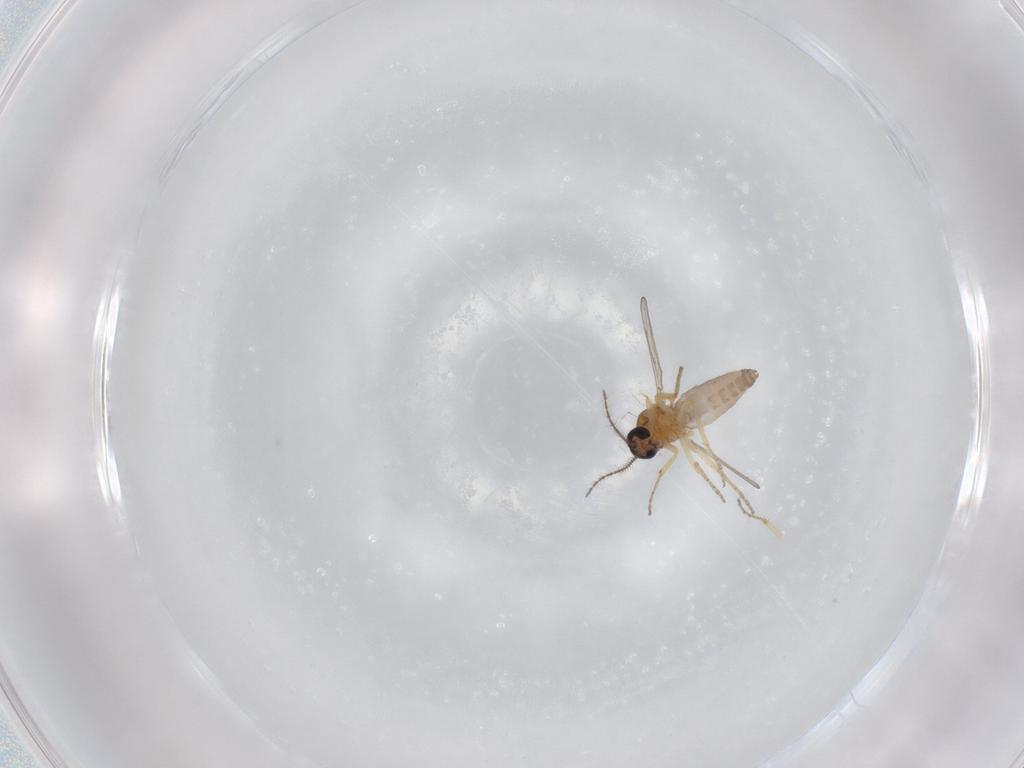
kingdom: Animalia
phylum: Arthropoda
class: Insecta
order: Diptera
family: Ceratopogonidae
